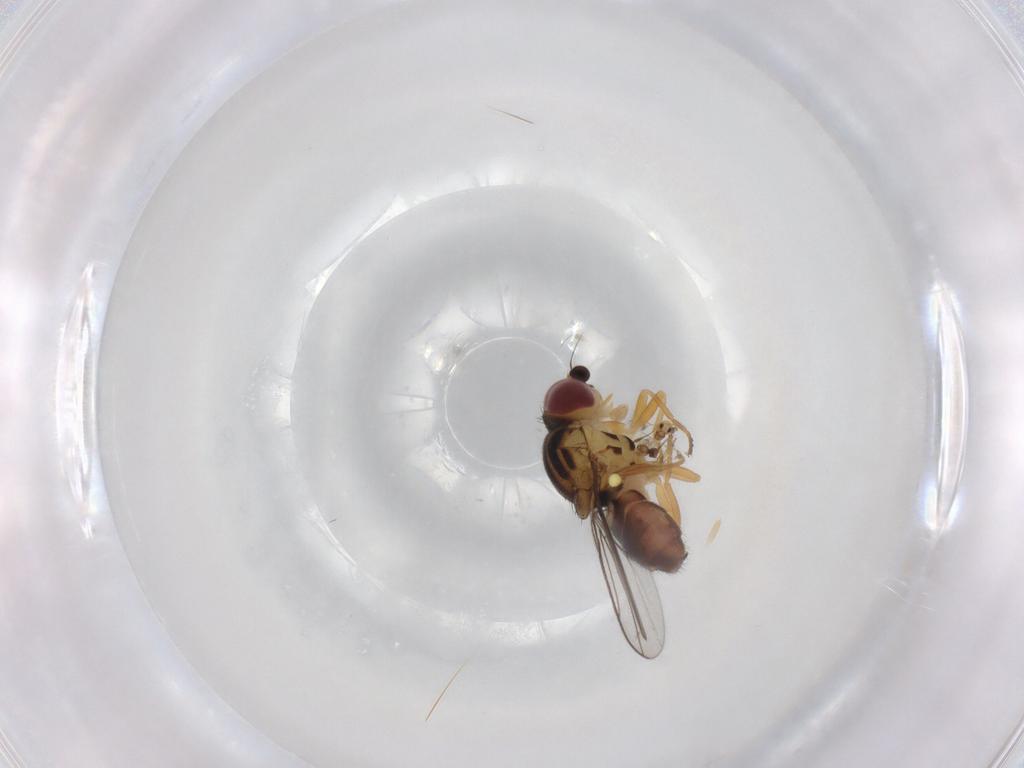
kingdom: Animalia
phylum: Arthropoda
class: Insecta
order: Diptera
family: Chloropidae
